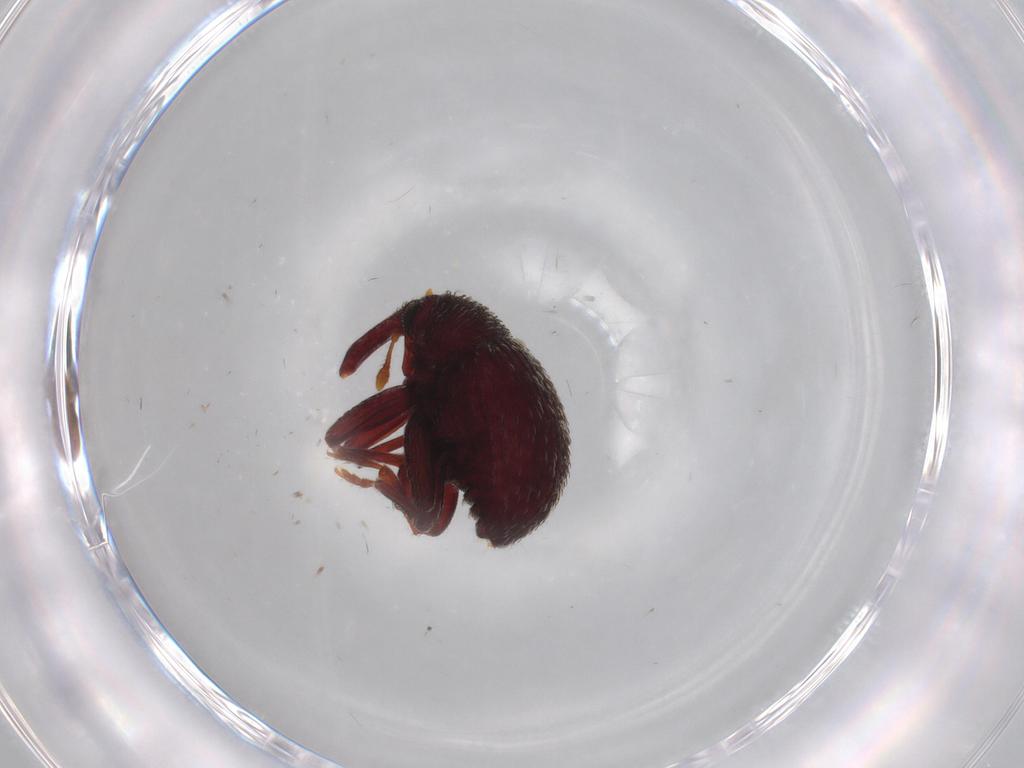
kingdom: Animalia
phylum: Arthropoda
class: Insecta
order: Coleoptera
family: Curculionidae
